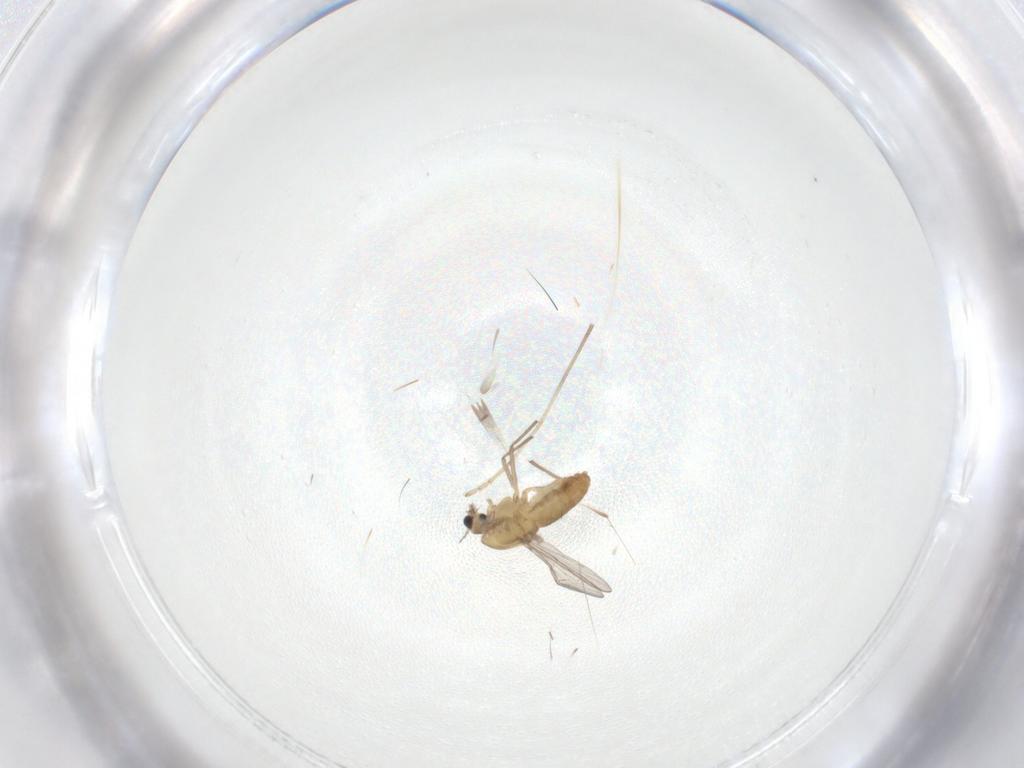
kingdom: Animalia
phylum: Arthropoda
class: Insecta
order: Diptera
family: Chironomidae
